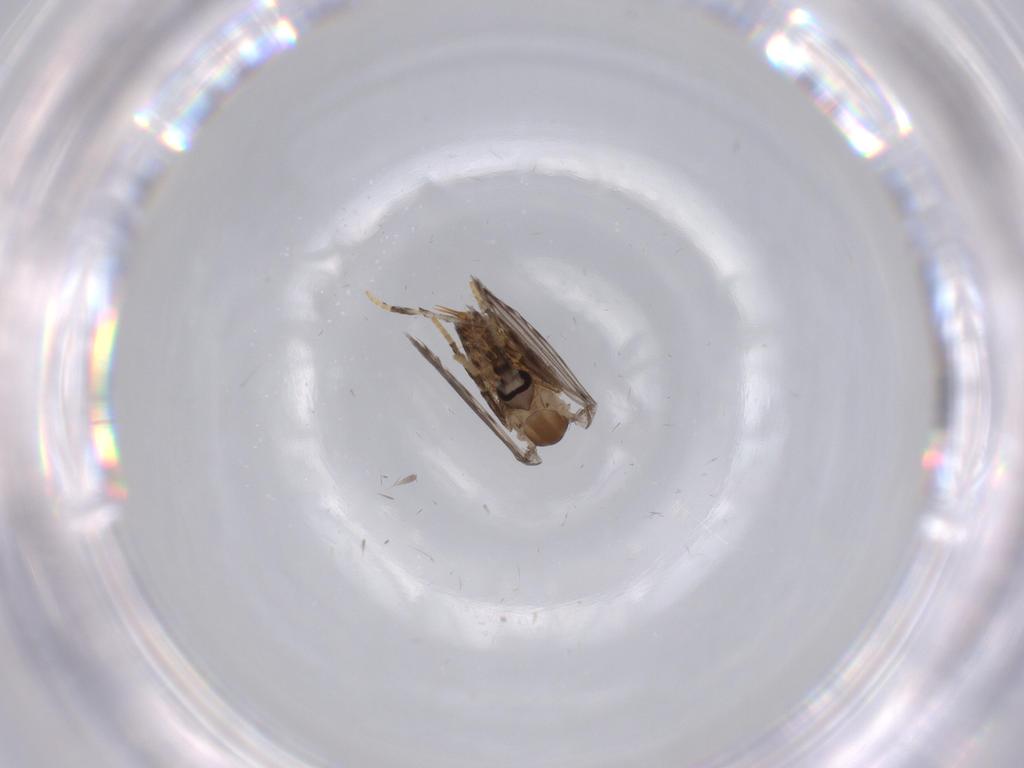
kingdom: Animalia
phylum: Arthropoda
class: Insecta
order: Diptera
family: Psychodidae
